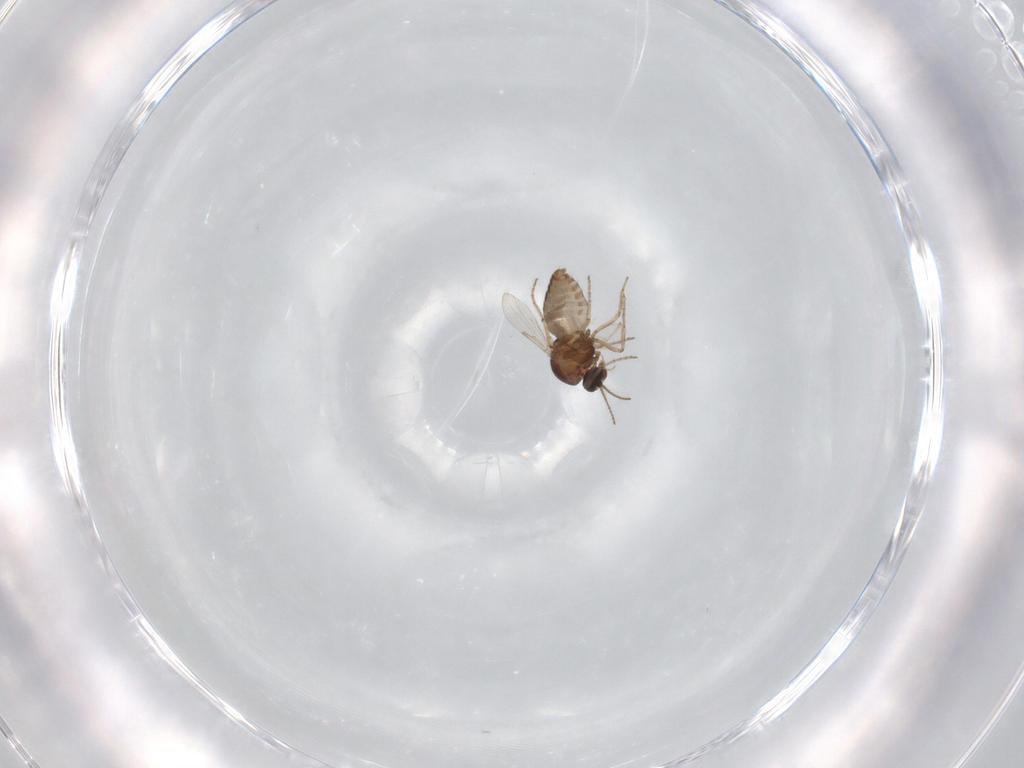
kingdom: Animalia
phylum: Arthropoda
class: Insecta
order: Diptera
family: Ceratopogonidae
